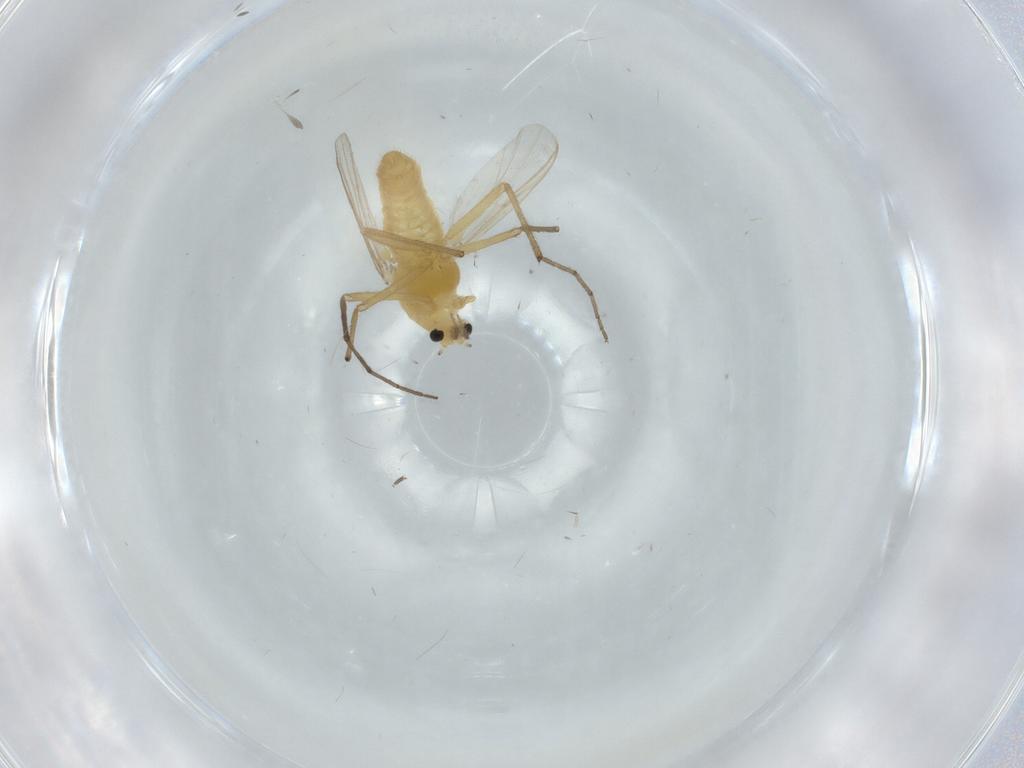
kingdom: Animalia
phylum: Arthropoda
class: Insecta
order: Diptera
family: Chironomidae
